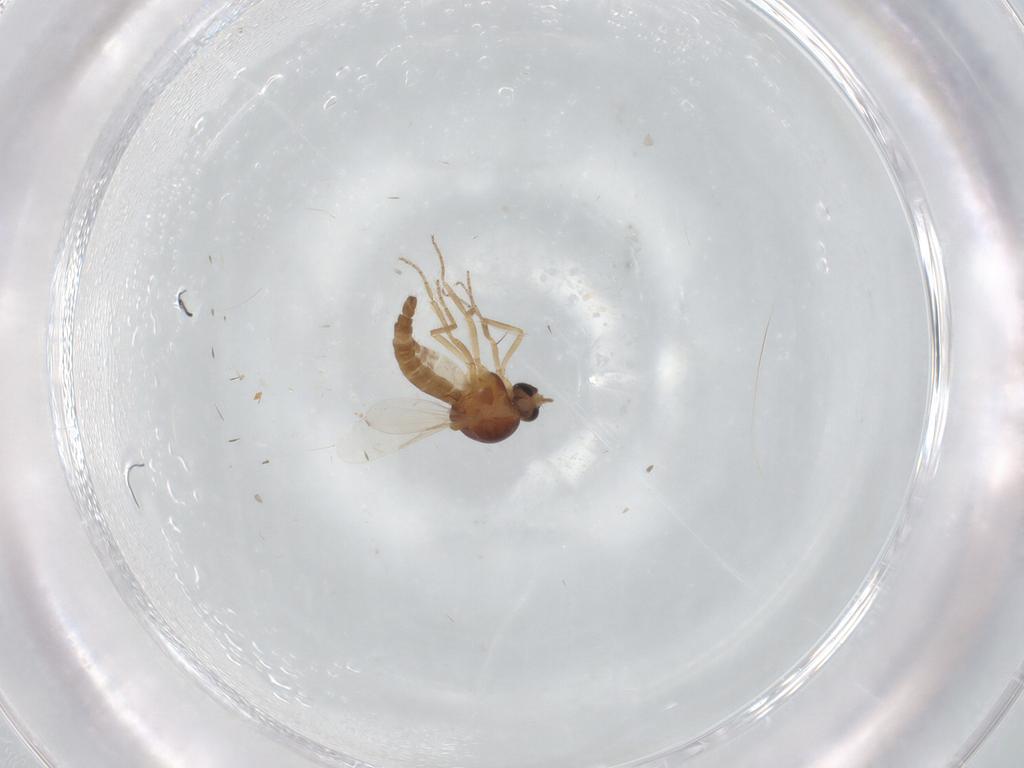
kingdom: Animalia
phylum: Arthropoda
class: Insecta
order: Diptera
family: Ceratopogonidae
